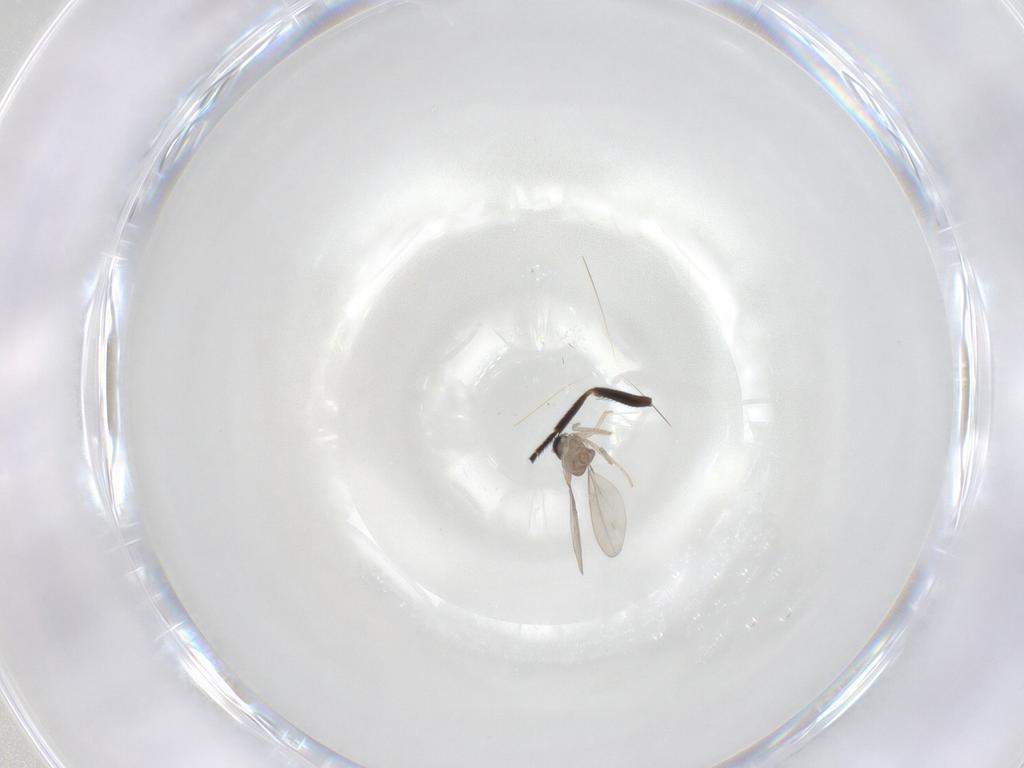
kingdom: Animalia
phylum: Arthropoda
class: Insecta
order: Diptera
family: Cecidomyiidae
